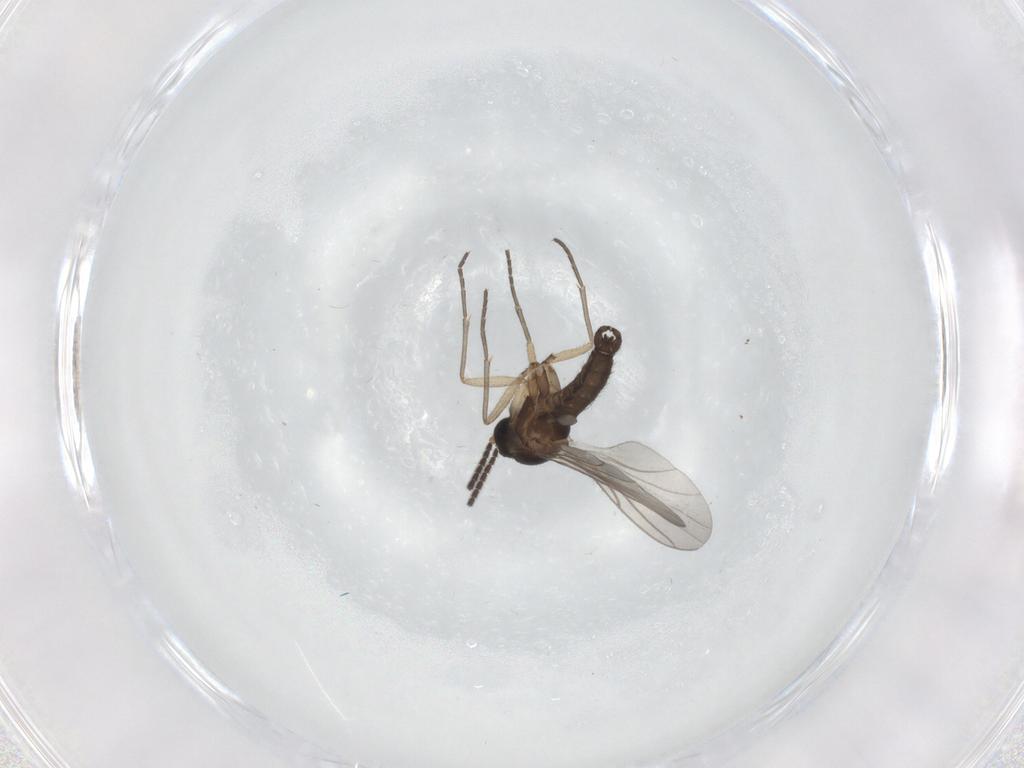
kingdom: Animalia
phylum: Arthropoda
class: Insecta
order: Diptera
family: Sciaridae
